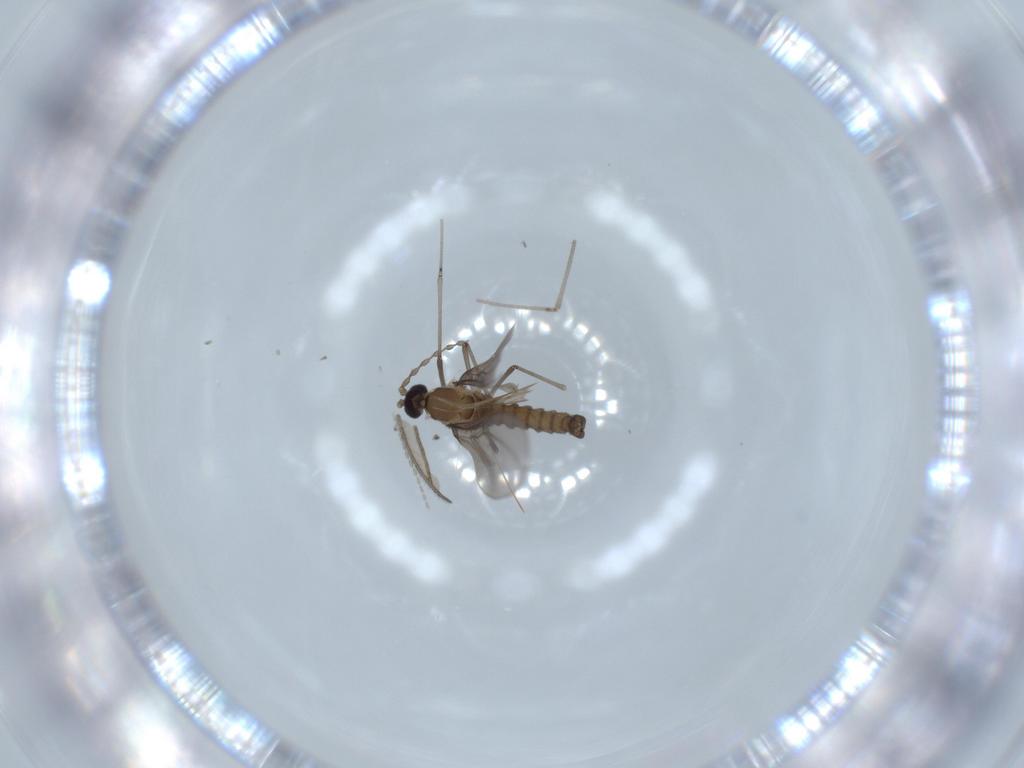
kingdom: Animalia
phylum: Arthropoda
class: Insecta
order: Diptera
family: Cecidomyiidae
